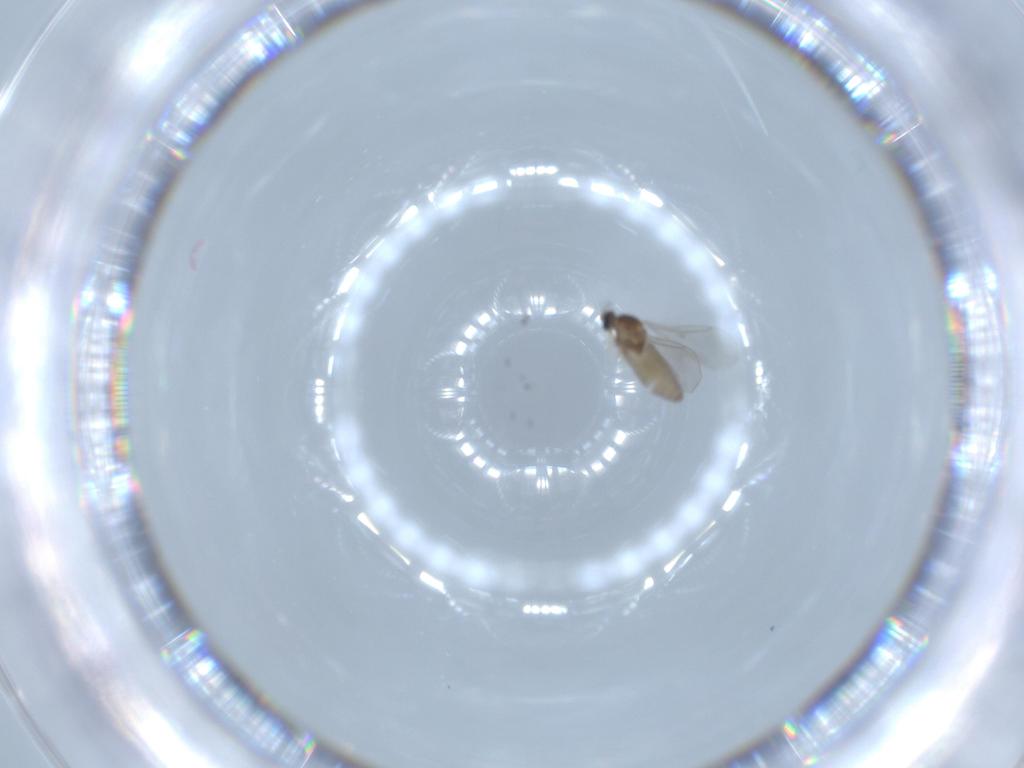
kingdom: Animalia
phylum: Arthropoda
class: Insecta
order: Diptera
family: Cecidomyiidae
